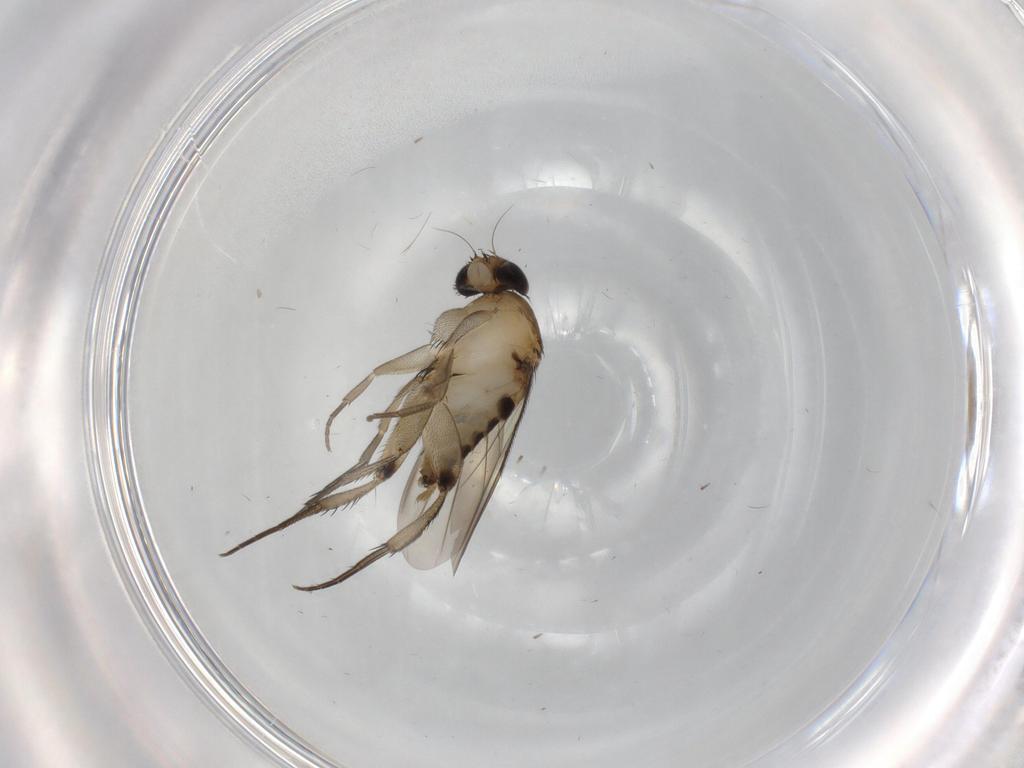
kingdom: Animalia
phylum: Arthropoda
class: Insecta
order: Diptera
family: Phoridae
